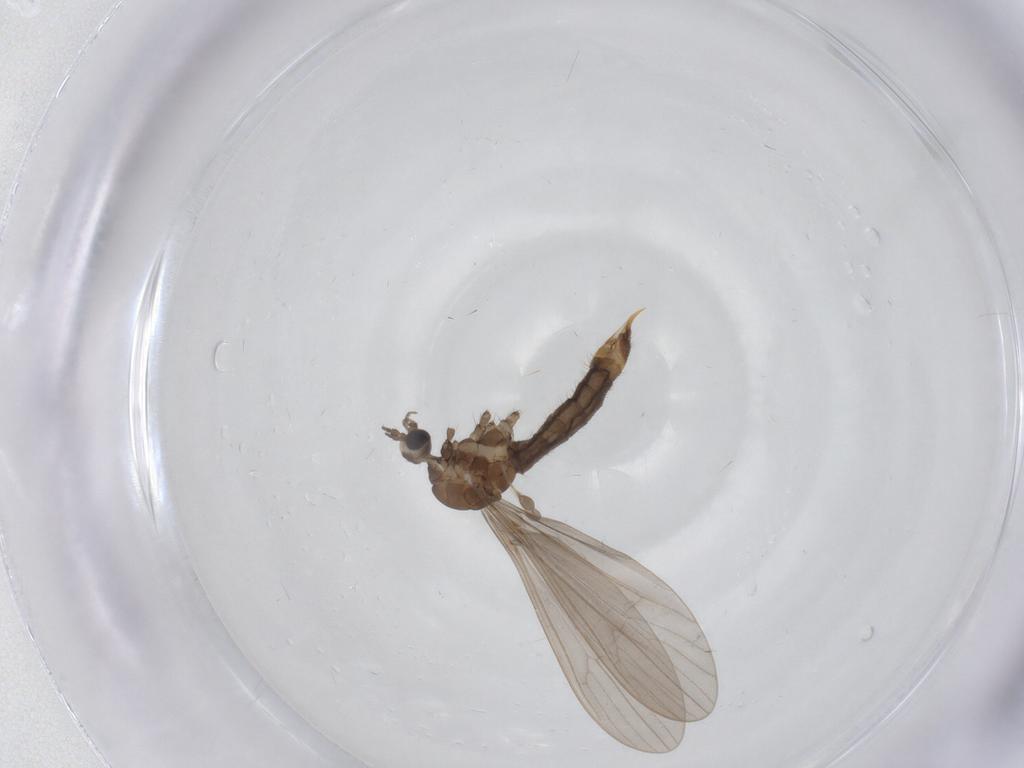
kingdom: Animalia
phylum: Arthropoda
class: Insecta
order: Diptera
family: Limoniidae
